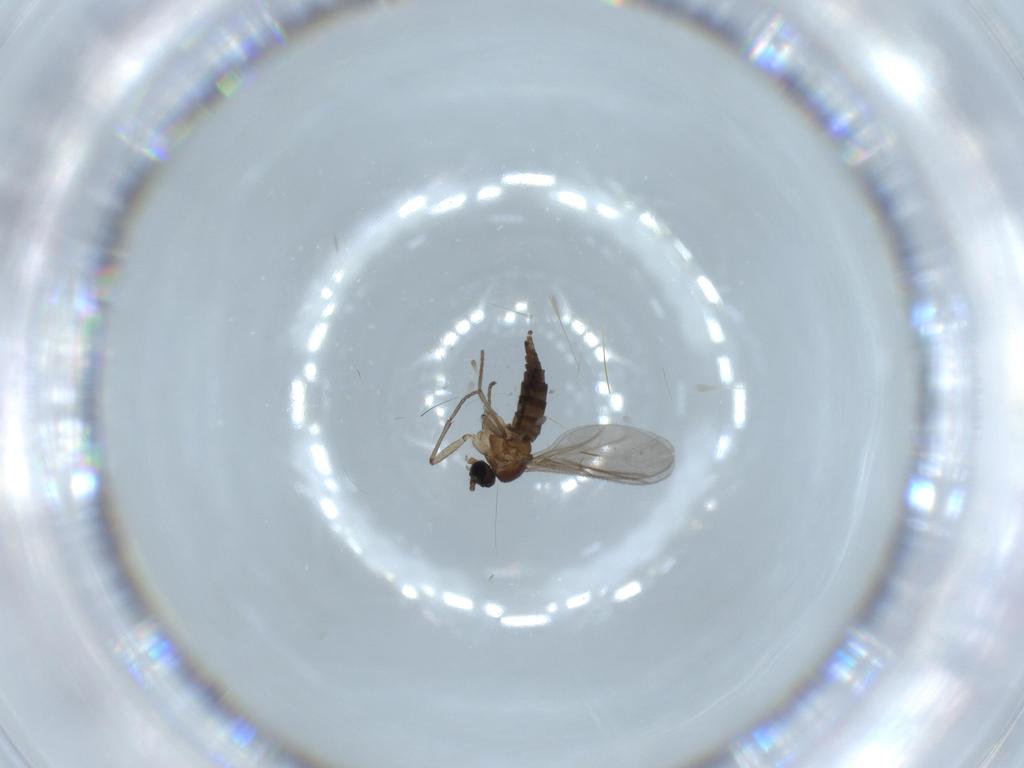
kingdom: Animalia
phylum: Arthropoda
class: Insecta
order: Diptera
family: Sciaridae
